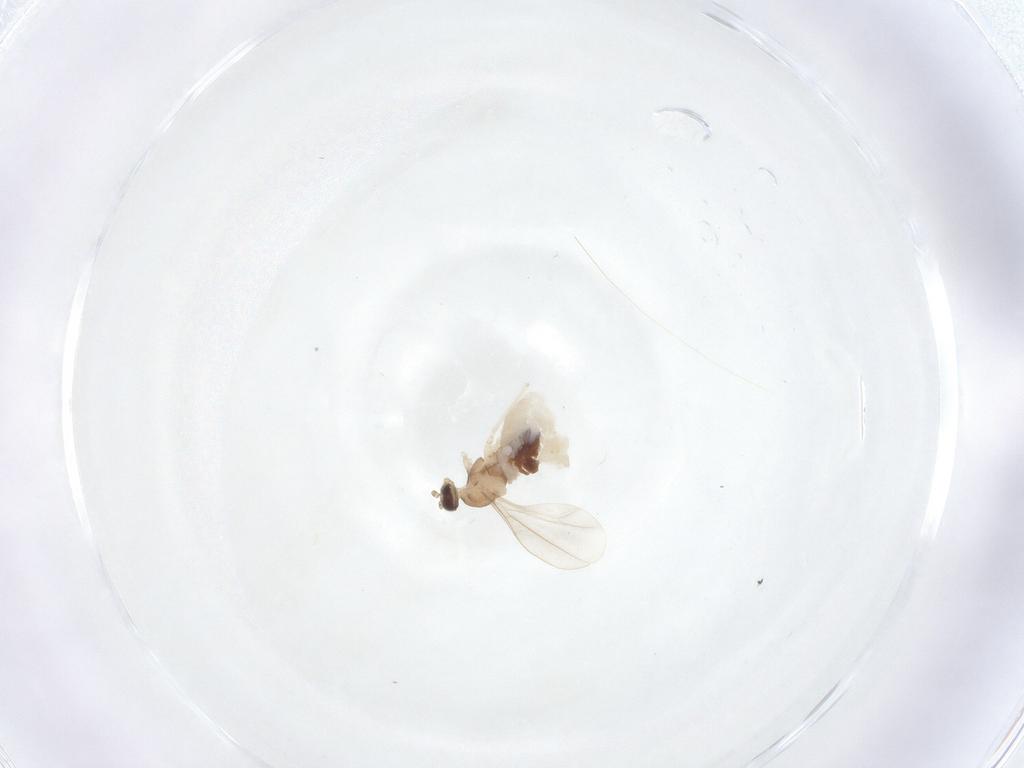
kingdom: Animalia
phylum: Arthropoda
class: Insecta
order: Diptera
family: Cecidomyiidae
